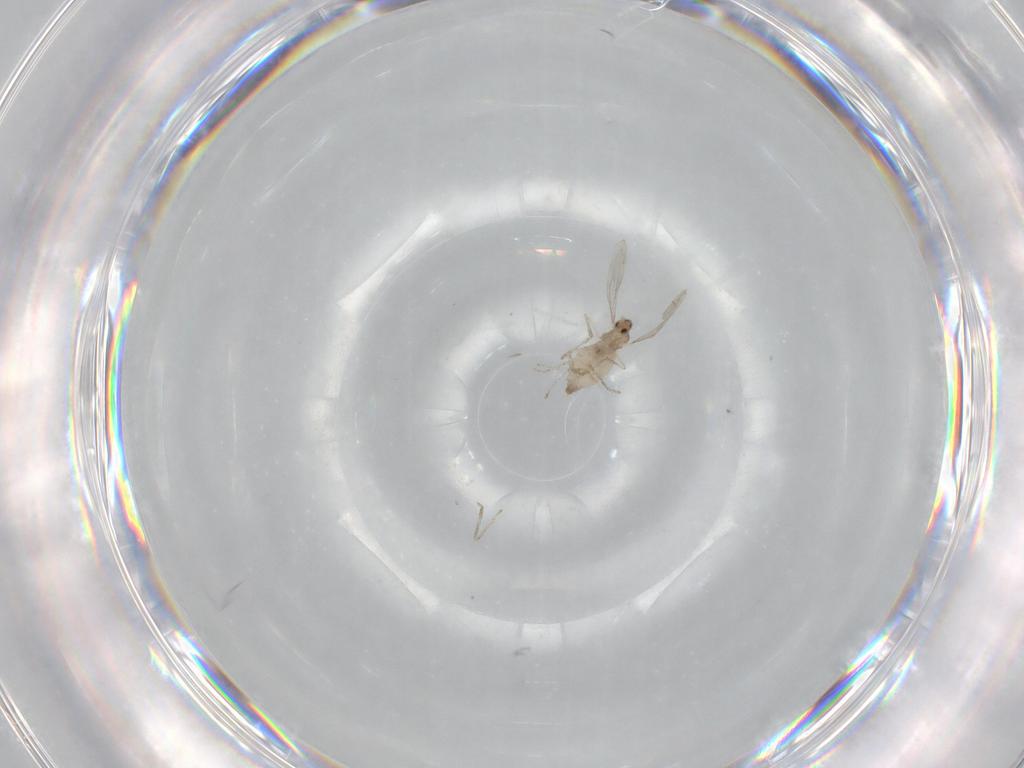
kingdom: Animalia
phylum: Arthropoda
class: Insecta
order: Diptera
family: Cecidomyiidae
